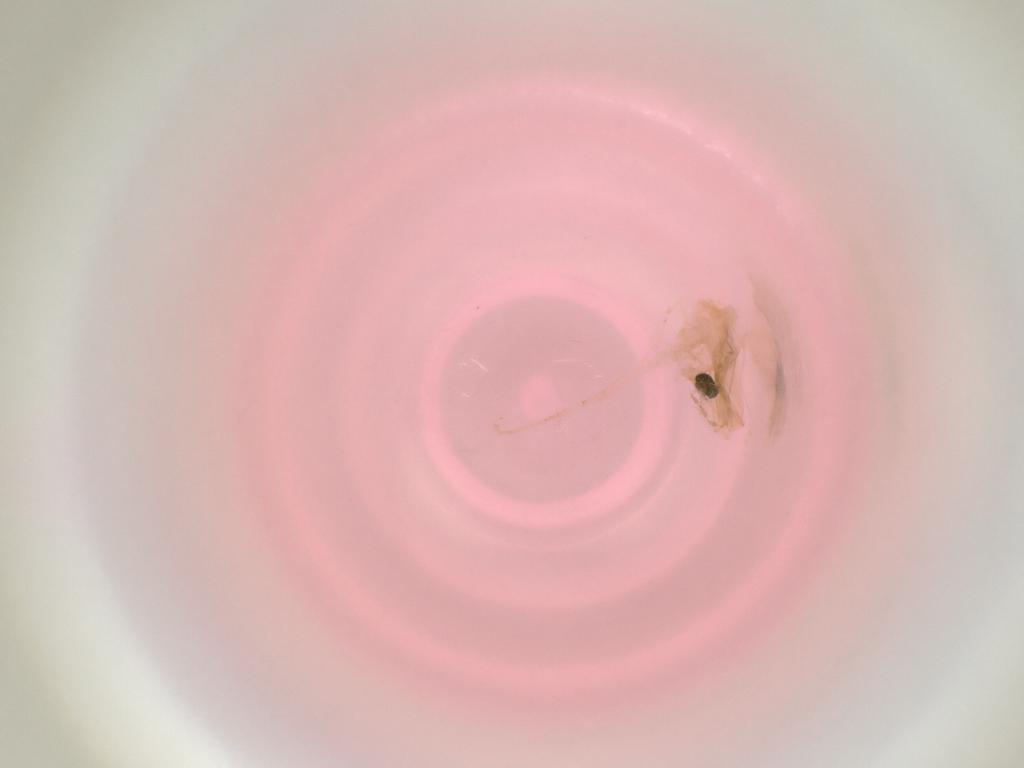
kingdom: Animalia
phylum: Arthropoda
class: Insecta
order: Diptera
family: Cecidomyiidae
